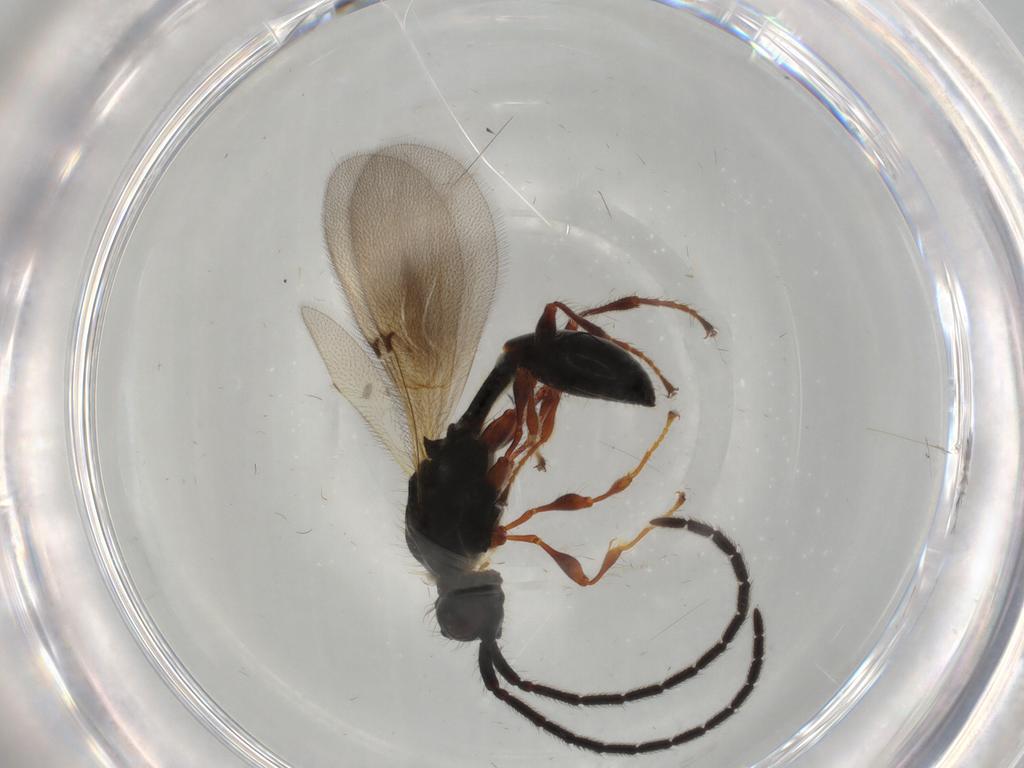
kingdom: Animalia
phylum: Arthropoda
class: Insecta
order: Hymenoptera
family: Diapriidae
